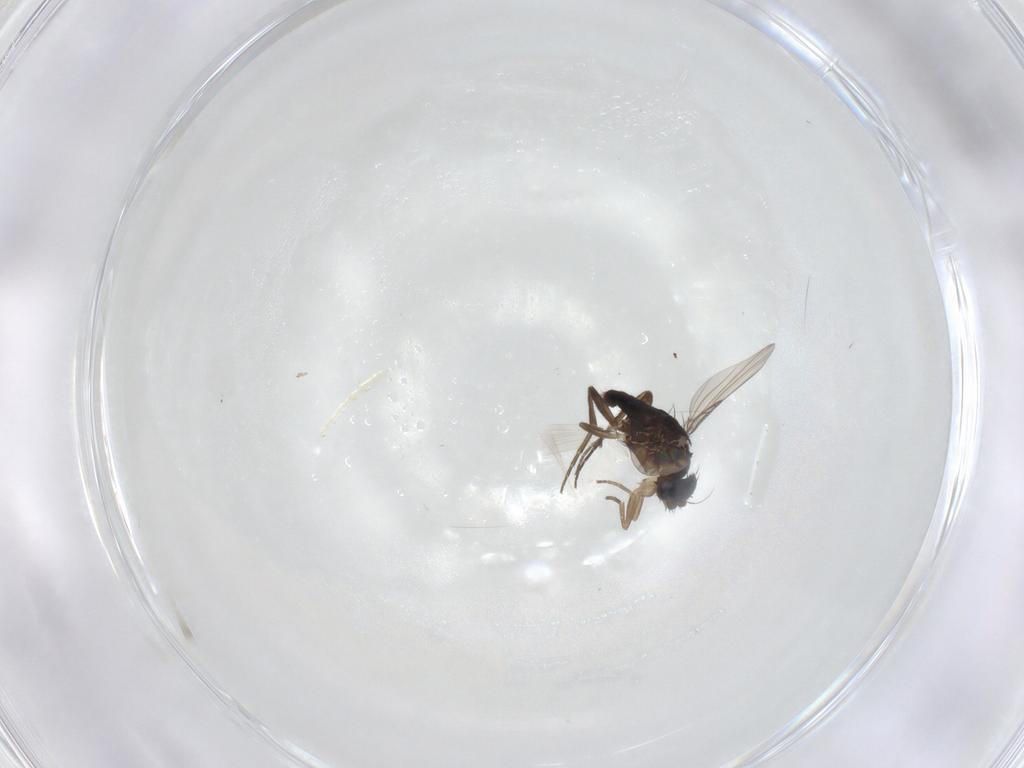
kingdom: Animalia
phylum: Arthropoda
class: Insecta
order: Diptera
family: Phoridae
